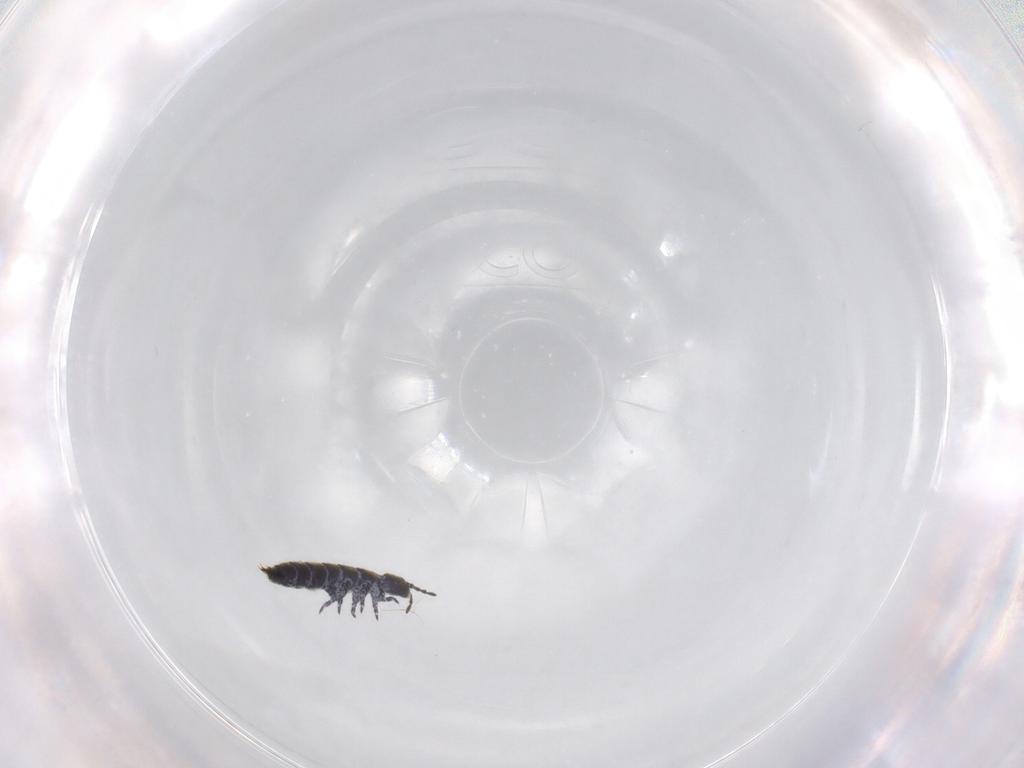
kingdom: Animalia
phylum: Arthropoda
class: Collembola
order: Entomobryomorpha
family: Isotomidae
